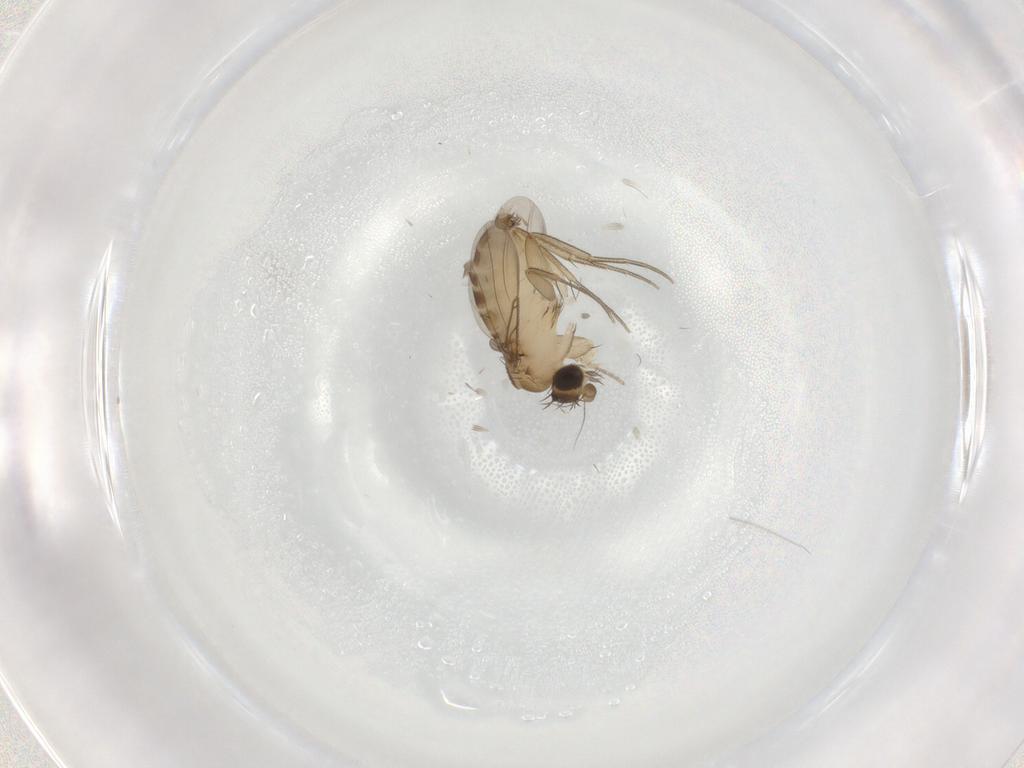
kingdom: Animalia
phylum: Arthropoda
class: Insecta
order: Diptera
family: Phoridae
